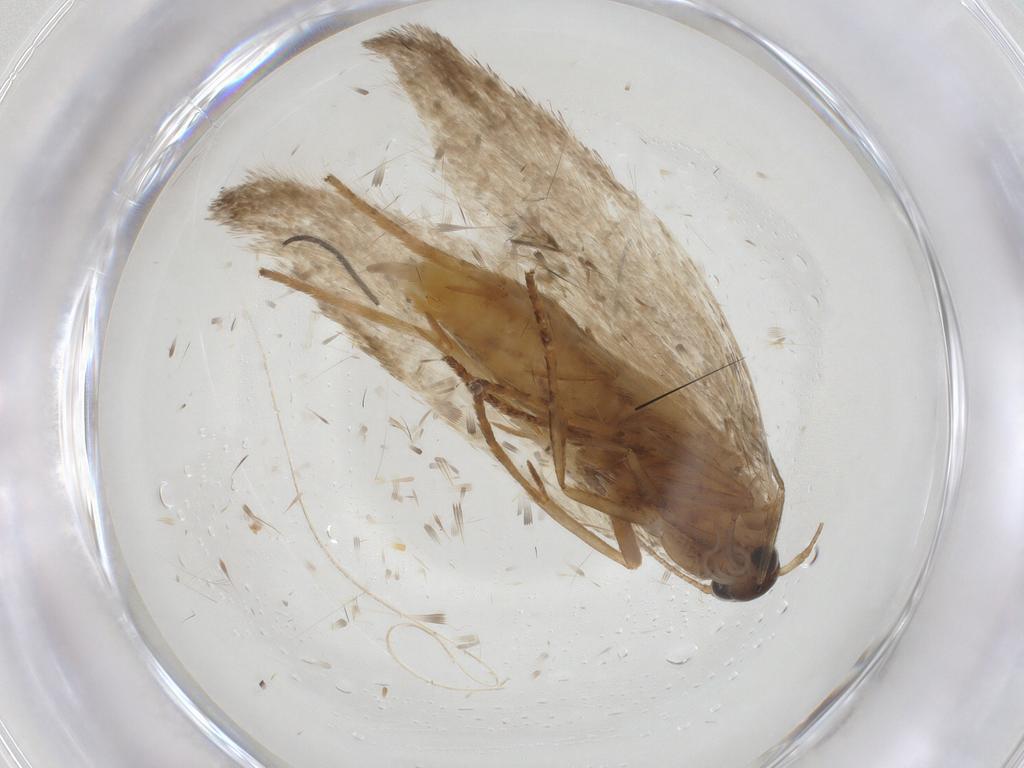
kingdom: Animalia
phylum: Arthropoda
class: Insecta
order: Lepidoptera
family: Erebidae
